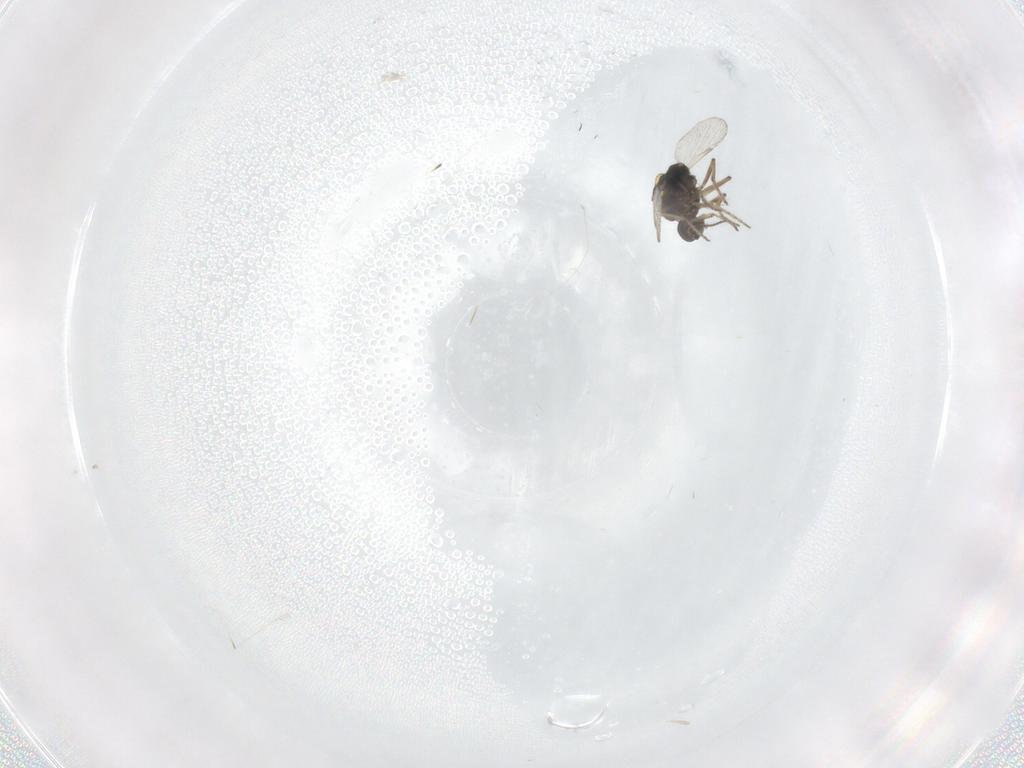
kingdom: Animalia
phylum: Arthropoda
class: Insecta
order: Diptera
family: Ceratopogonidae
